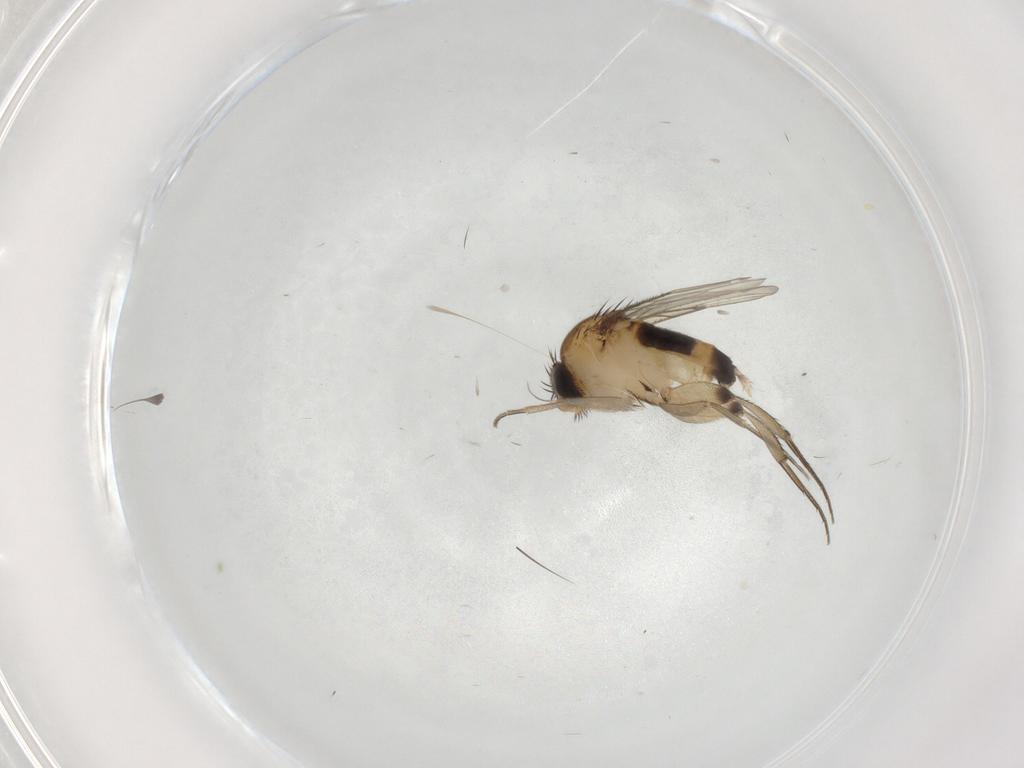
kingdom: Animalia
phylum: Arthropoda
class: Insecta
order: Diptera
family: Phoridae
